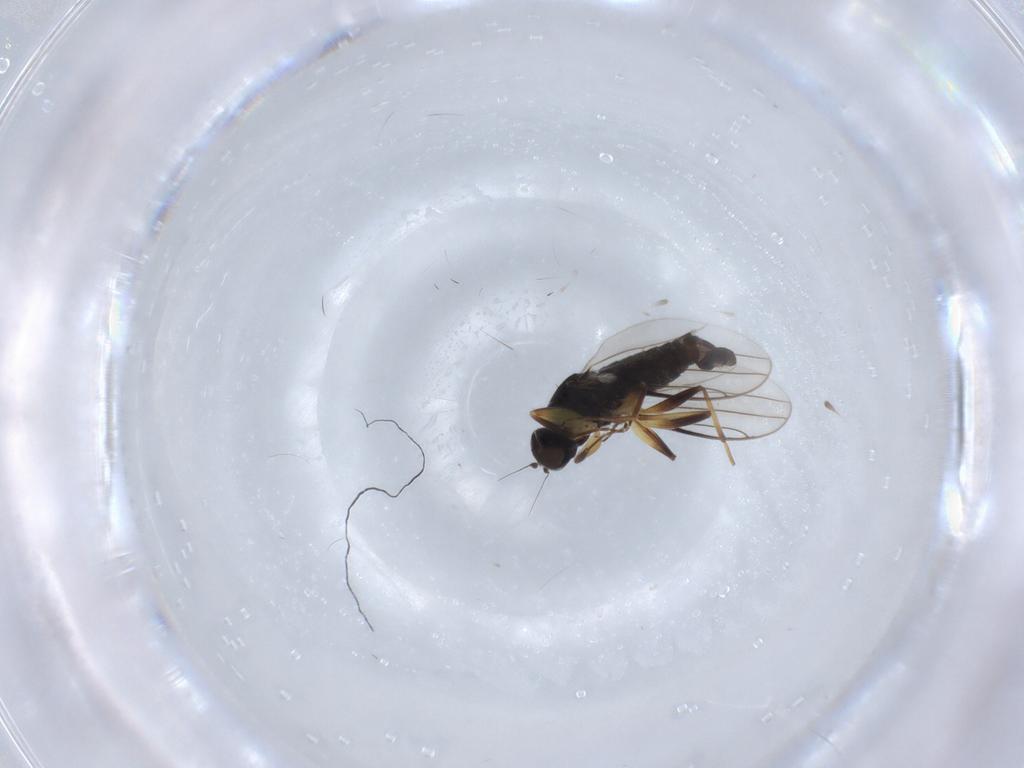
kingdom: Animalia
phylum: Arthropoda
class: Insecta
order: Diptera
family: Hybotidae
